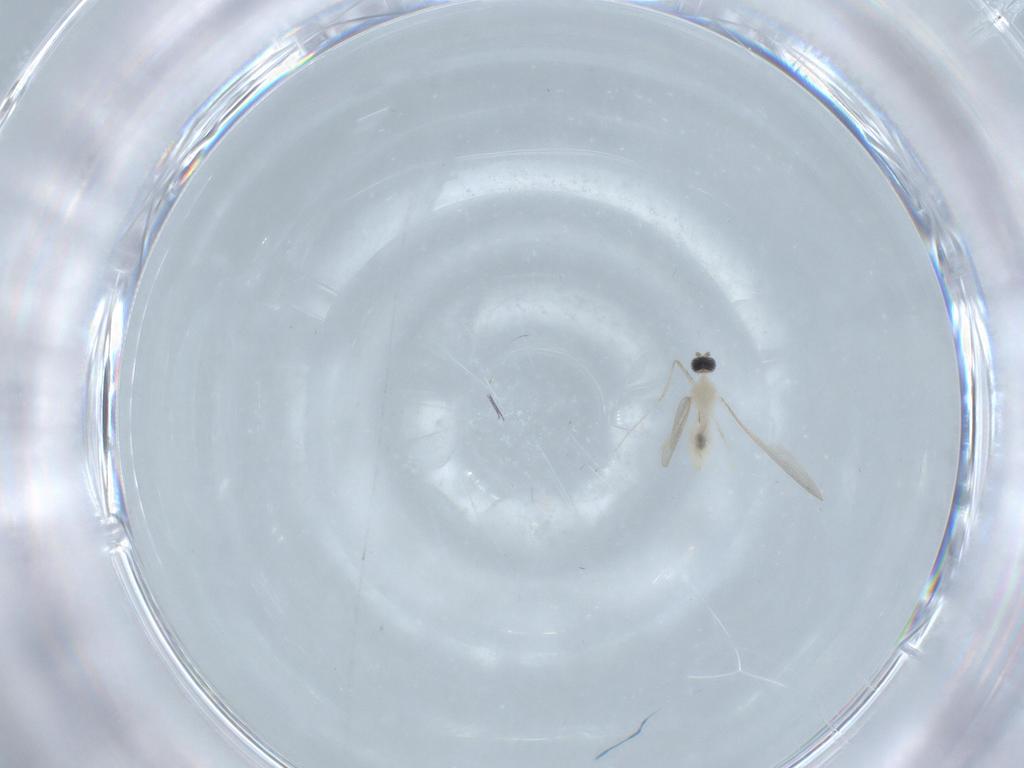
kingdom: Animalia
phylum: Arthropoda
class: Insecta
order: Diptera
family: Cecidomyiidae
